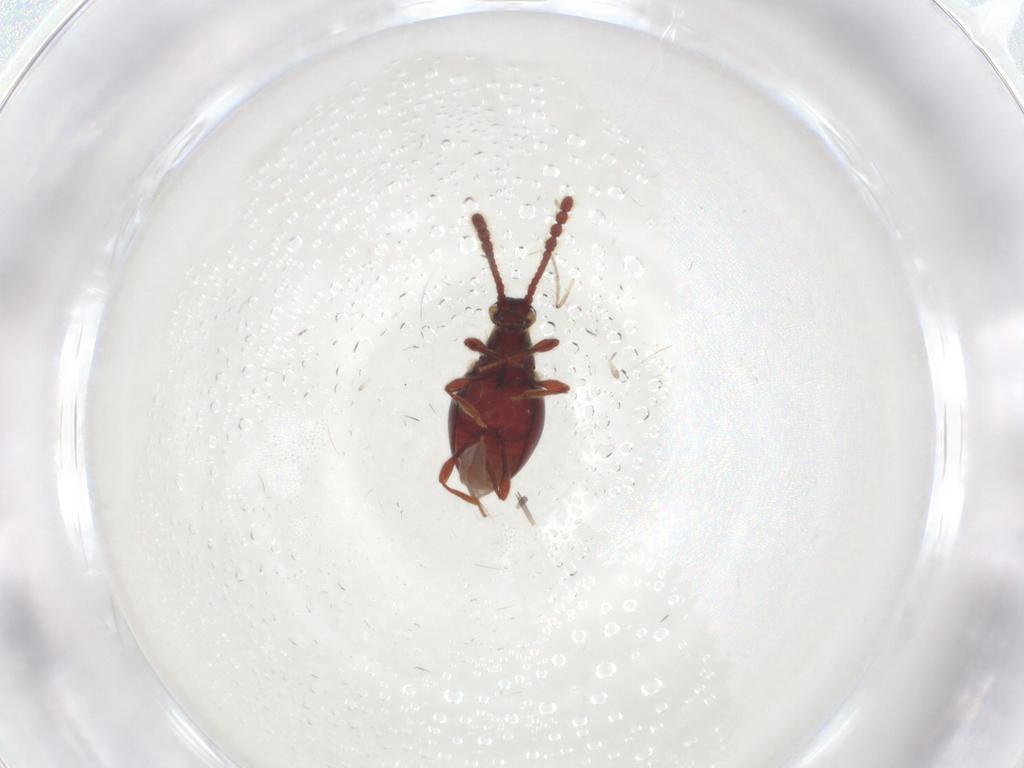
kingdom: Animalia
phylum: Arthropoda
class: Insecta
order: Coleoptera
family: Staphylinidae
